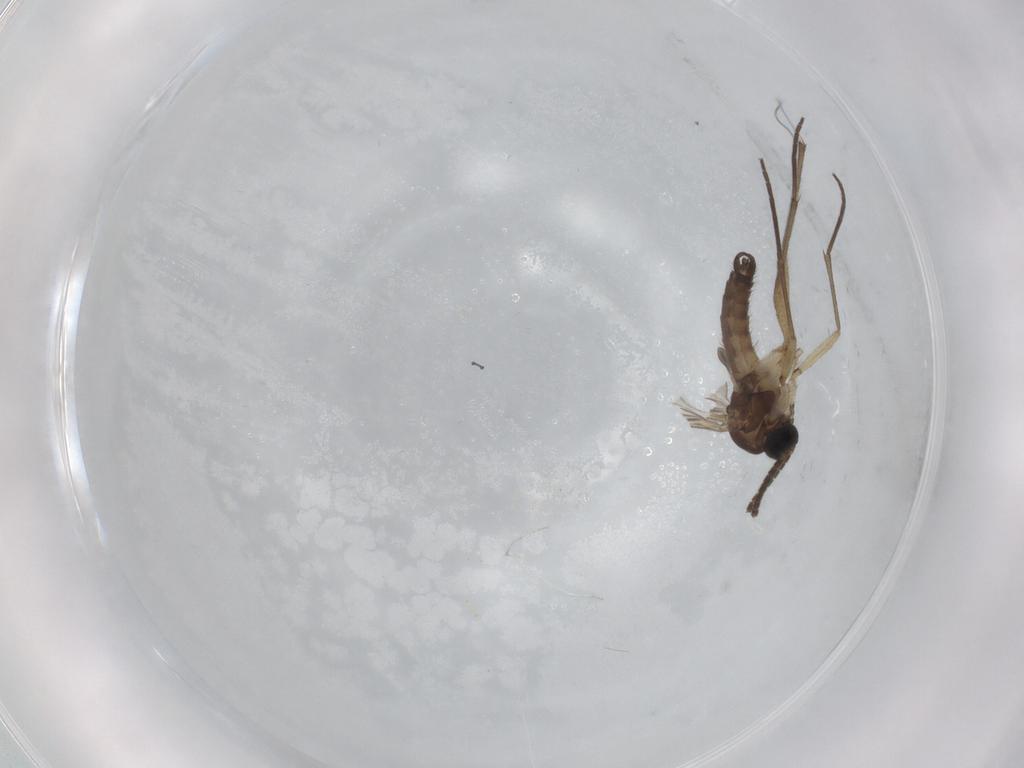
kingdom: Animalia
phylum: Arthropoda
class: Insecta
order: Diptera
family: Sciaridae
